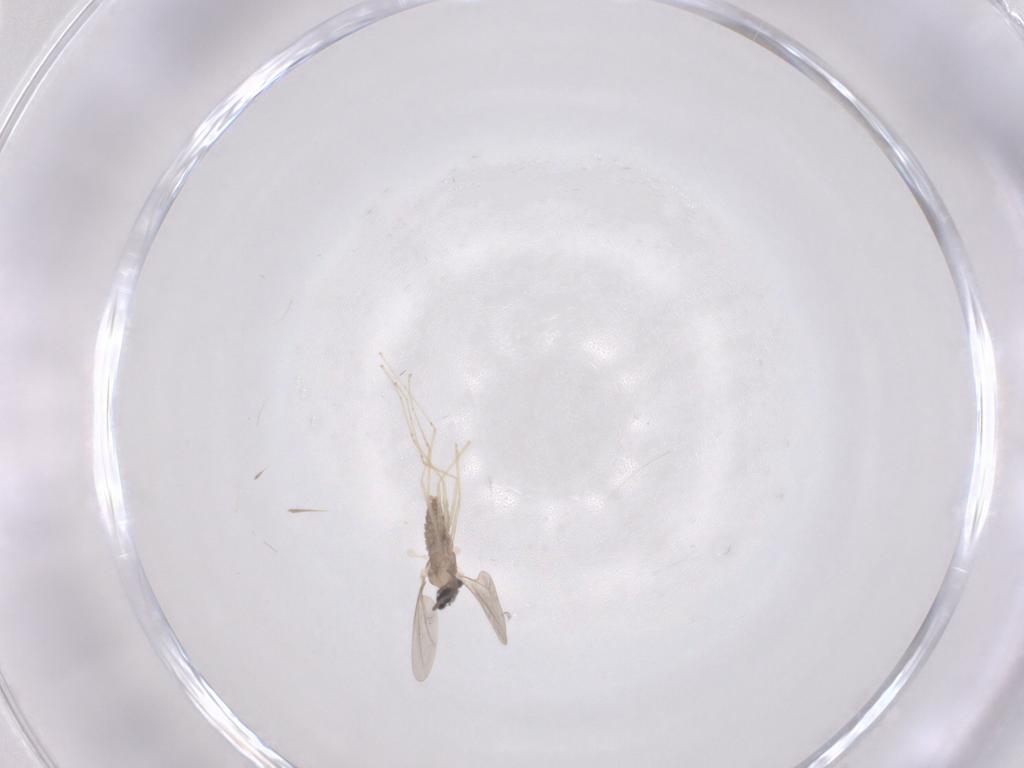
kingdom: Animalia
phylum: Arthropoda
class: Insecta
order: Diptera
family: Cecidomyiidae
